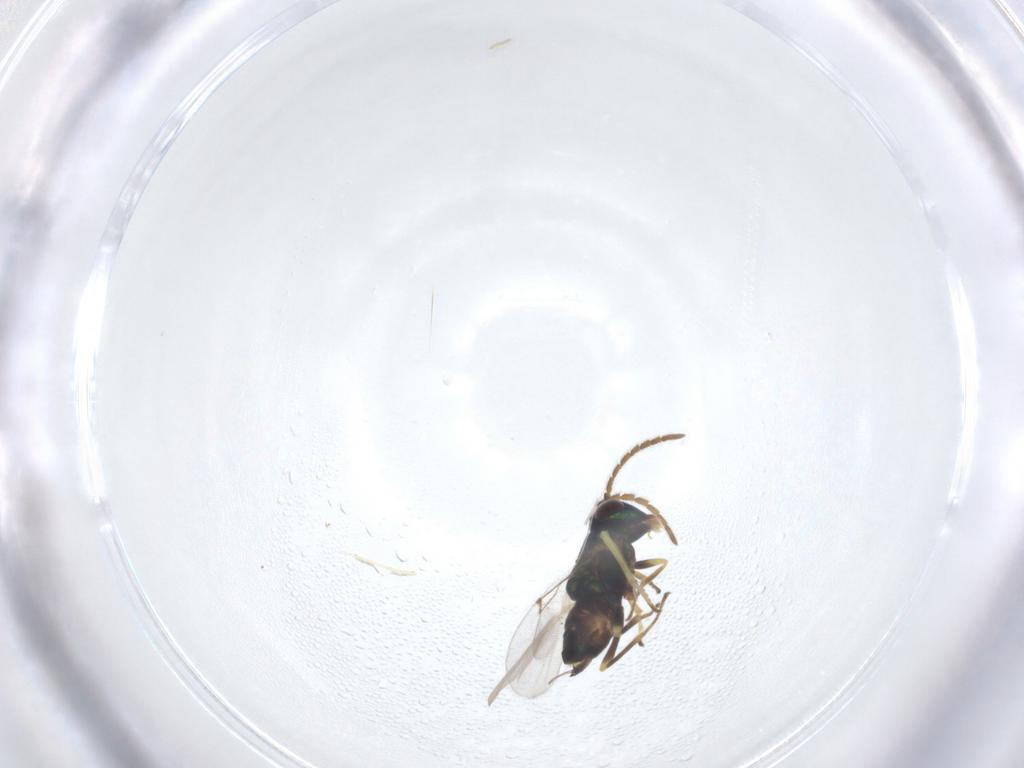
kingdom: Animalia
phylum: Arthropoda
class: Insecta
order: Hymenoptera
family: Encyrtidae
